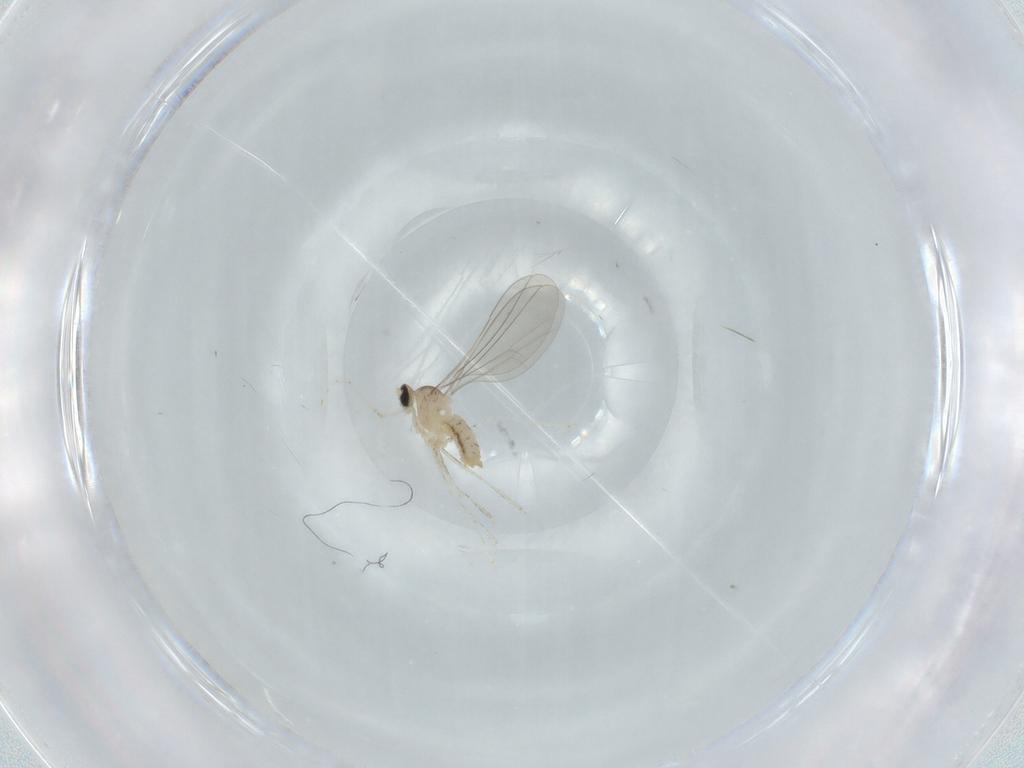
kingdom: Animalia
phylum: Arthropoda
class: Insecta
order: Diptera
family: Cecidomyiidae
